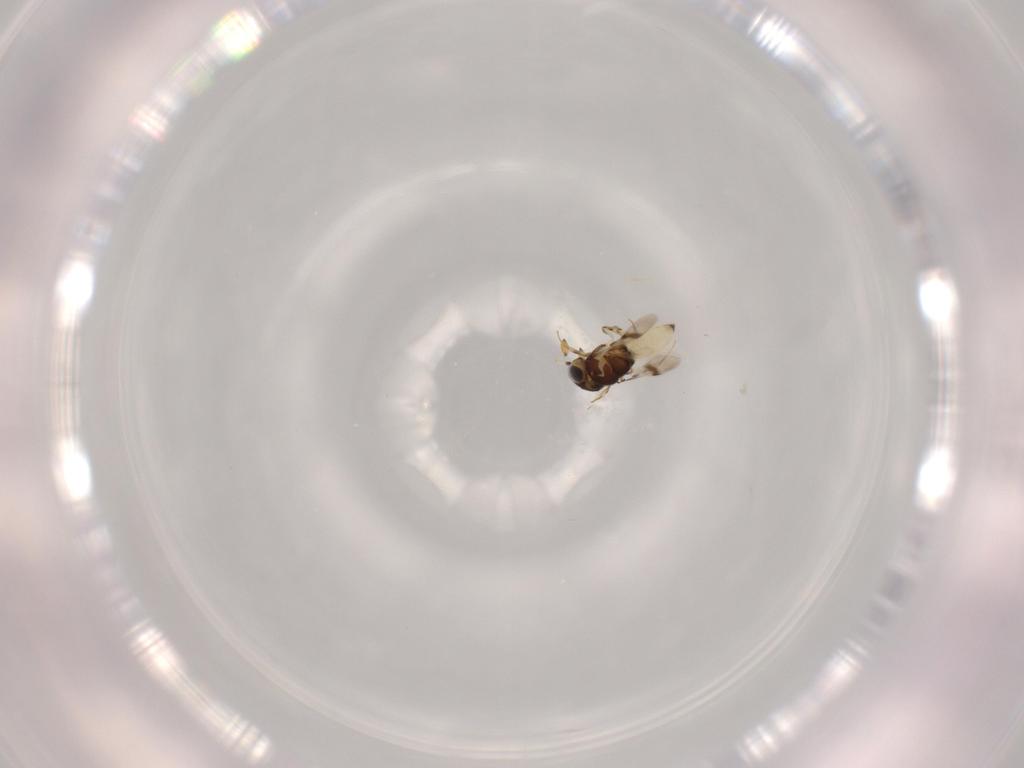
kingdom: Animalia
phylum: Arthropoda
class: Insecta
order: Hymenoptera
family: Scelionidae
